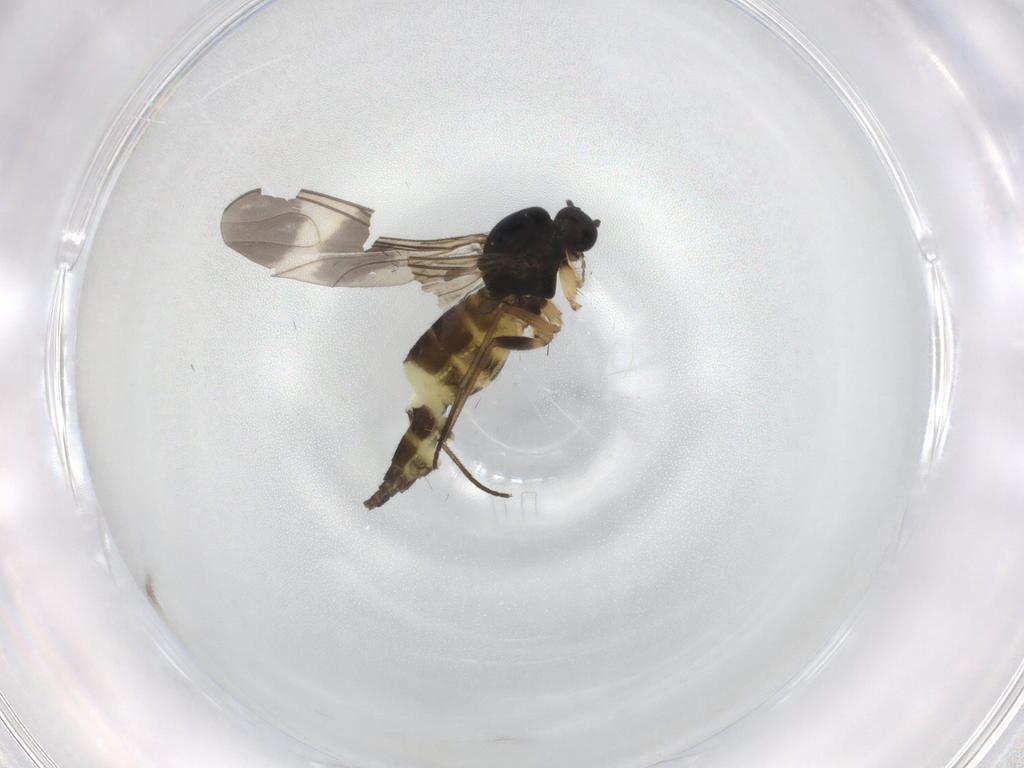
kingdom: Animalia
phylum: Arthropoda
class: Insecta
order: Diptera
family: Sciaridae
